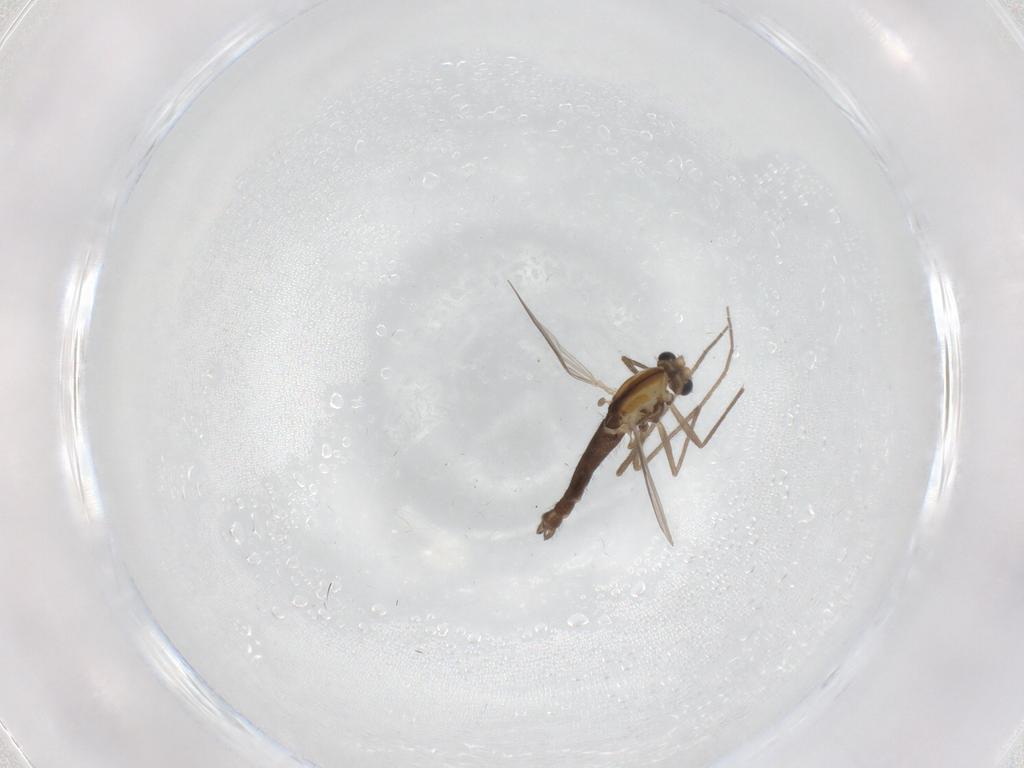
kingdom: Animalia
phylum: Arthropoda
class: Insecta
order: Diptera
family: Chironomidae
